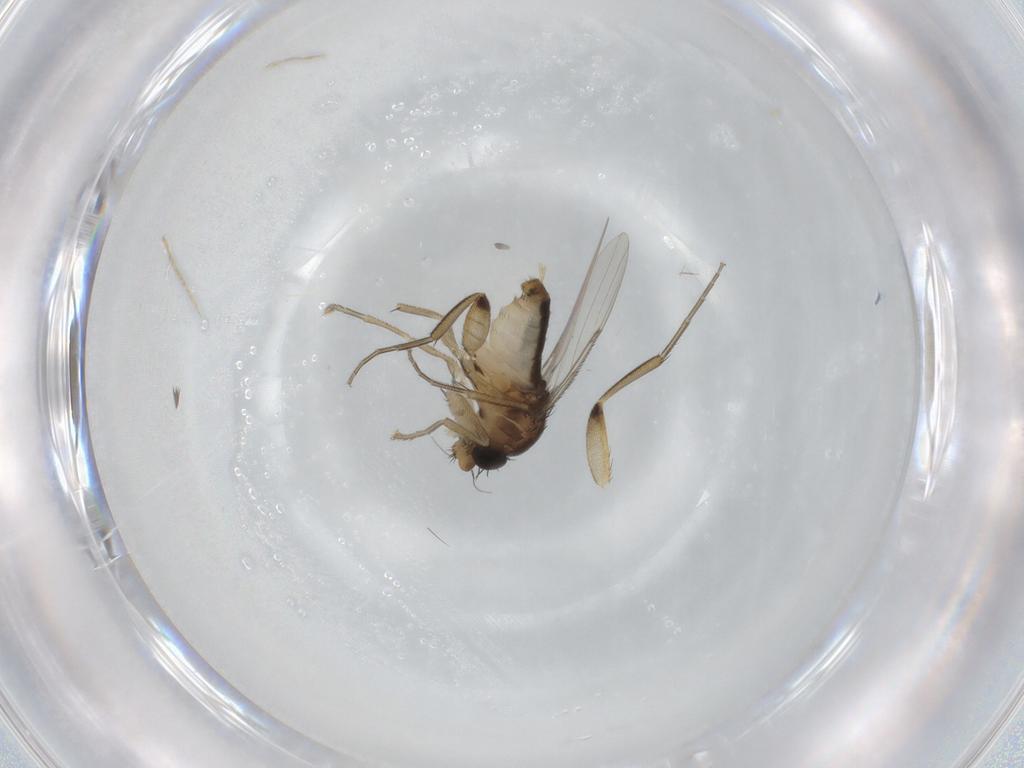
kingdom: Animalia
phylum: Arthropoda
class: Insecta
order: Diptera
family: Phoridae
